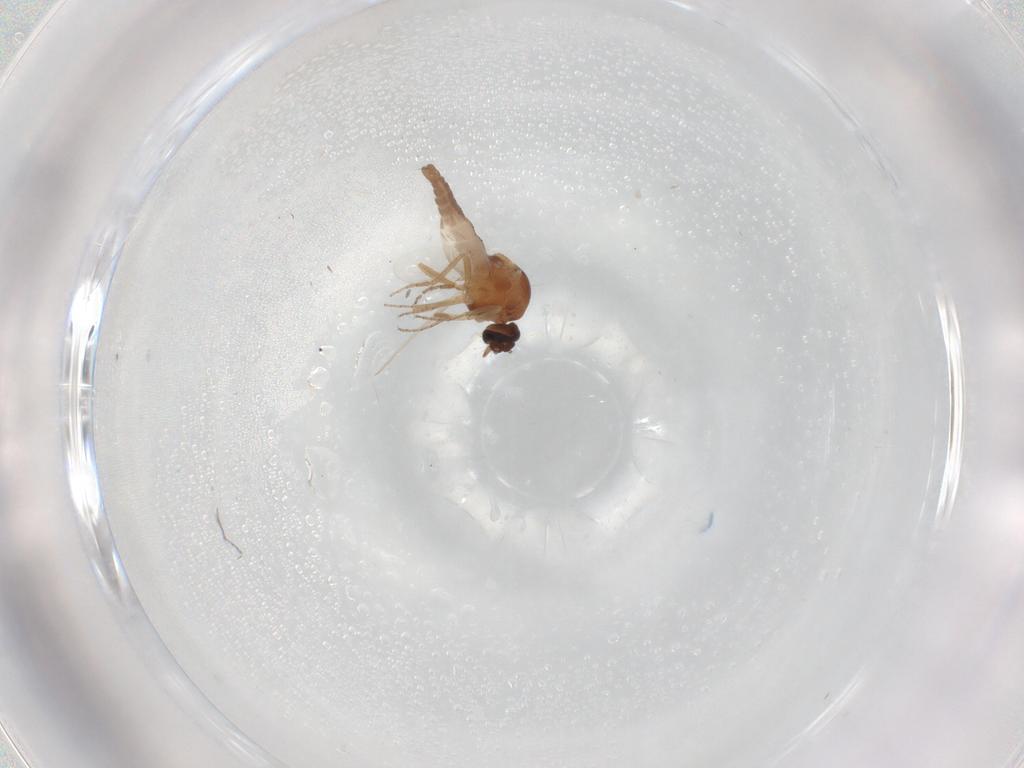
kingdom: Animalia
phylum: Arthropoda
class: Insecta
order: Diptera
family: Ceratopogonidae
